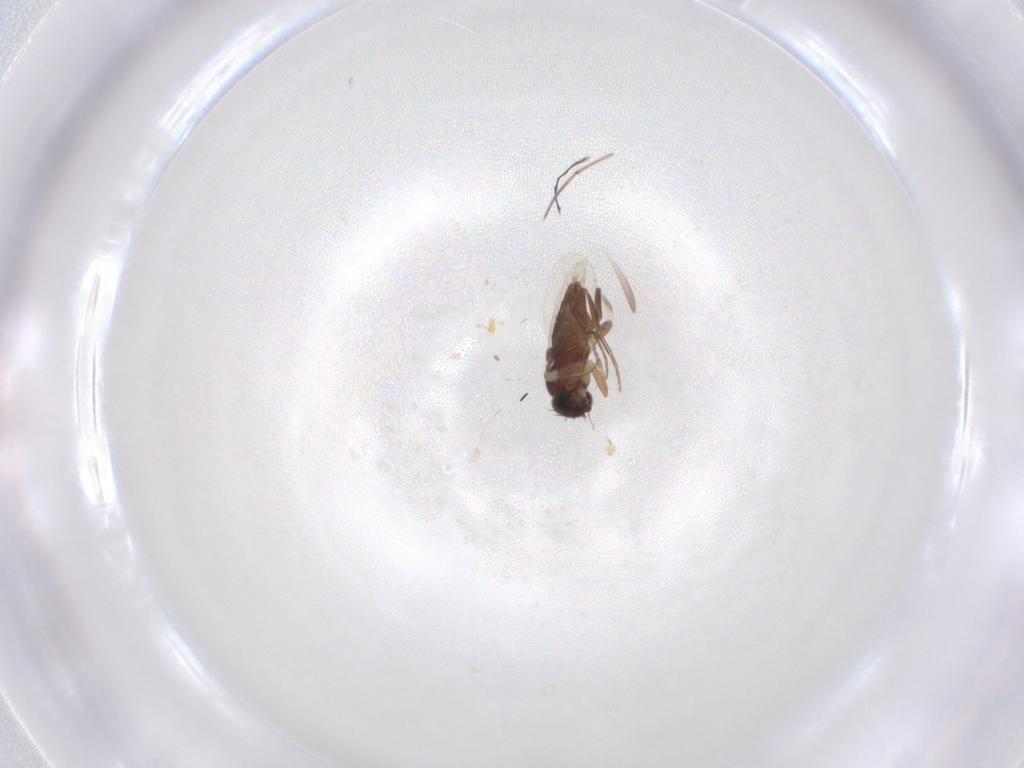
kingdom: Animalia
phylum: Arthropoda
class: Insecta
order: Diptera
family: Phoridae
